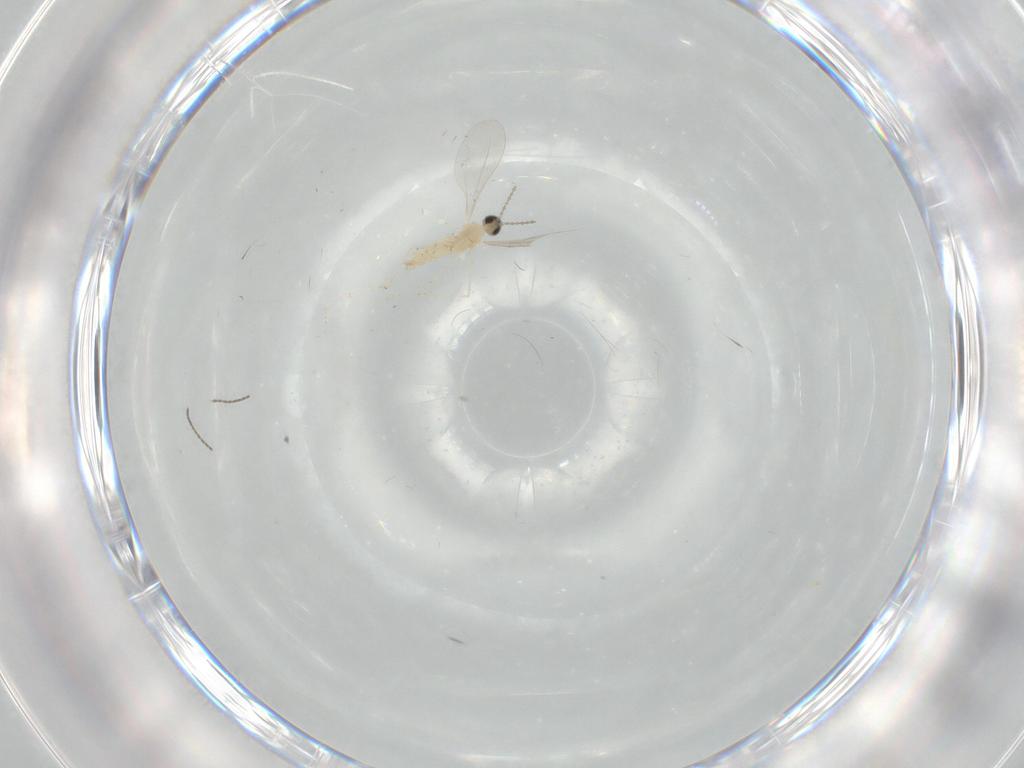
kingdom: Animalia
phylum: Arthropoda
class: Insecta
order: Diptera
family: Cecidomyiidae
